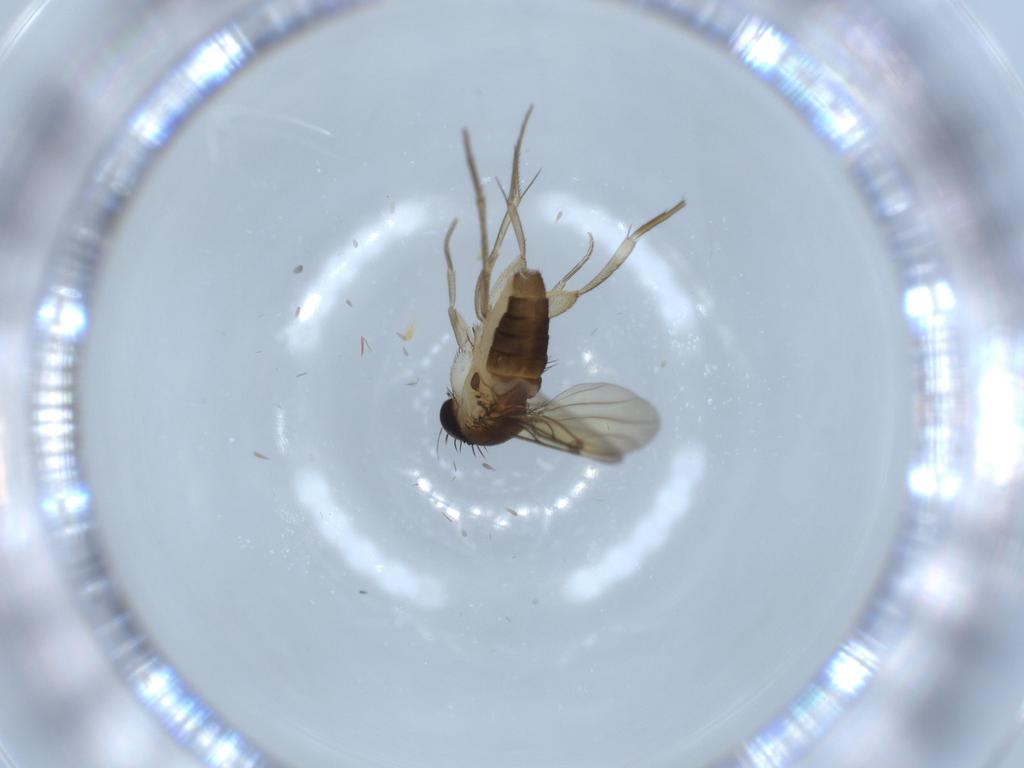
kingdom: Animalia
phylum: Arthropoda
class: Insecta
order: Diptera
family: Phoridae
